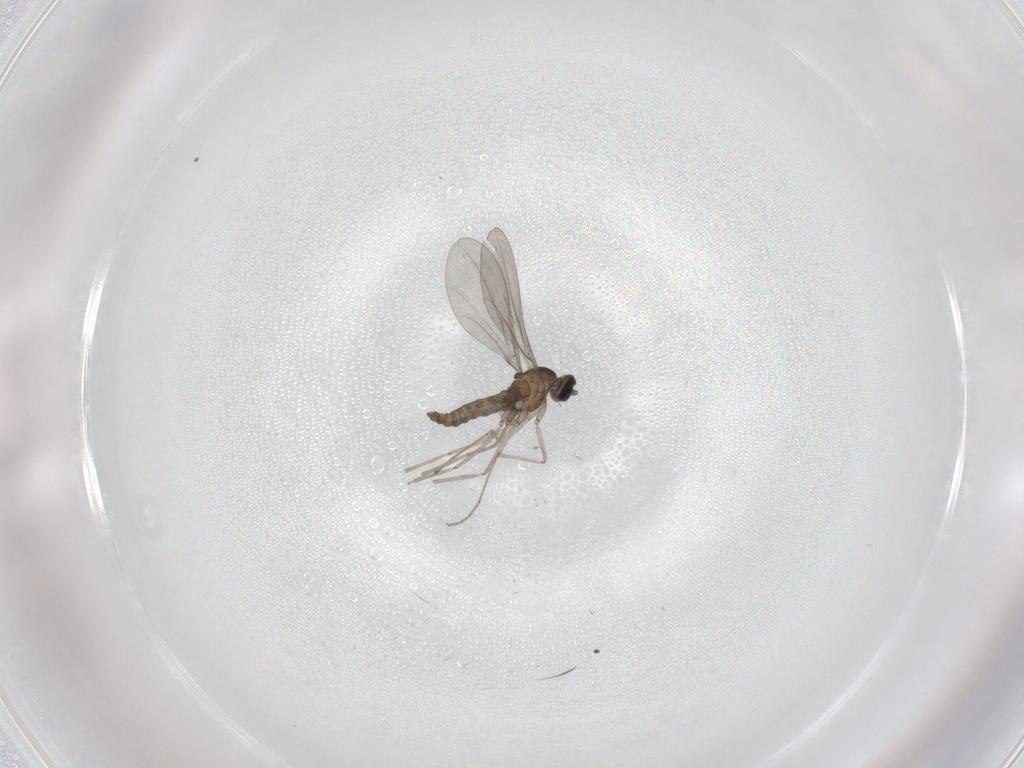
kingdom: Animalia
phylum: Arthropoda
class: Insecta
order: Diptera
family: Cecidomyiidae
